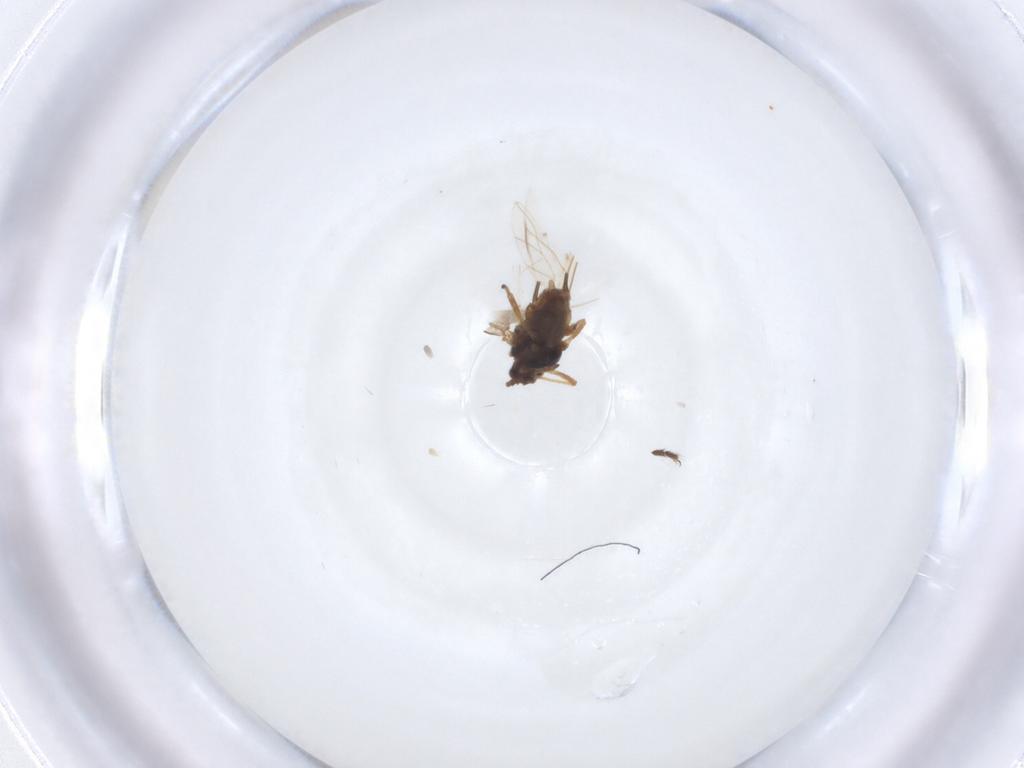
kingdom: Animalia
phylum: Arthropoda
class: Insecta
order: Hemiptera
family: Aphididae
